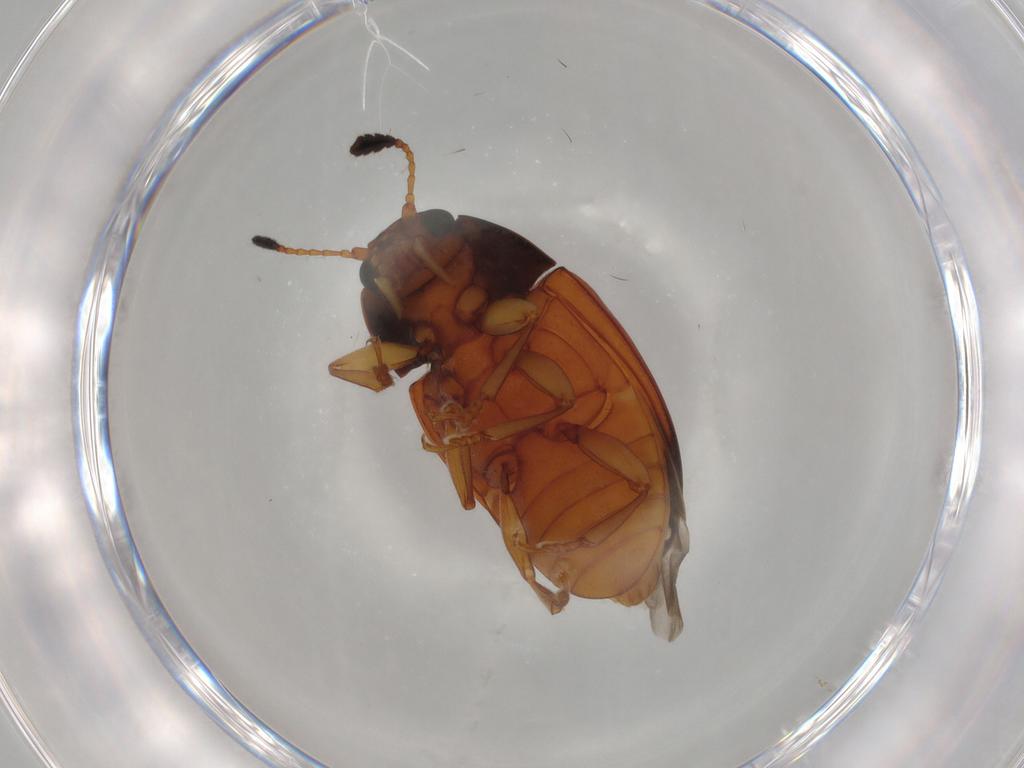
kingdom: Animalia
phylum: Arthropoda
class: Insecta
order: Coleoptera
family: Erotylidae
